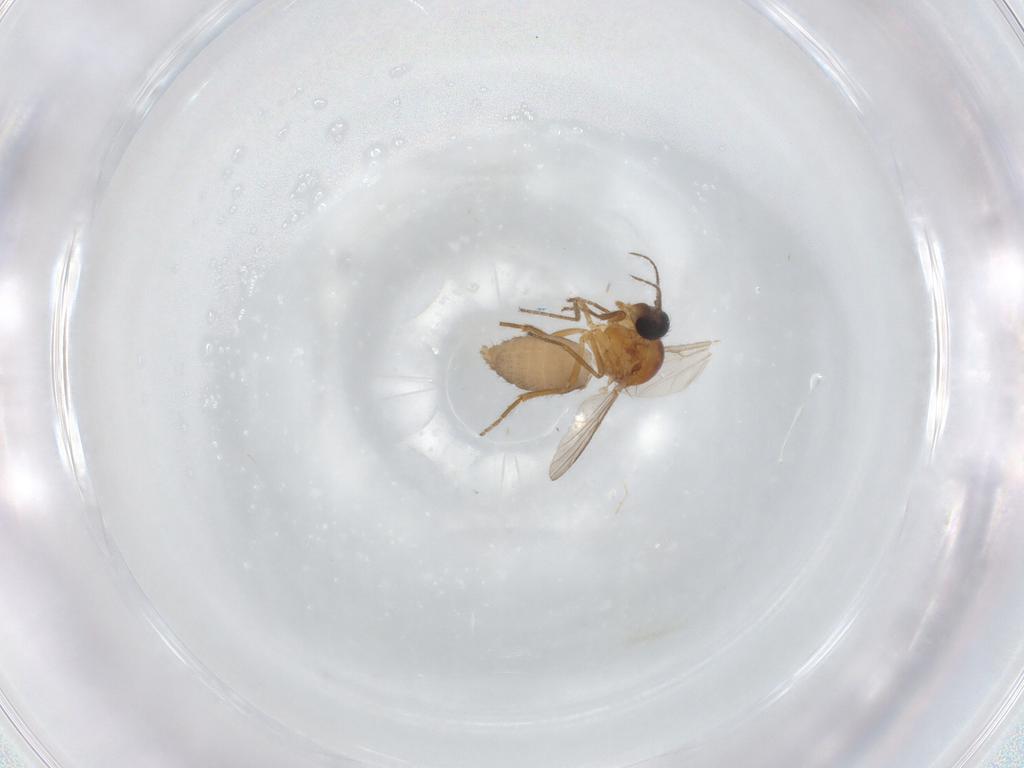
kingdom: Animalia
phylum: Arthropoda
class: Insecta
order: Diptera
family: Ceratopogonidae
